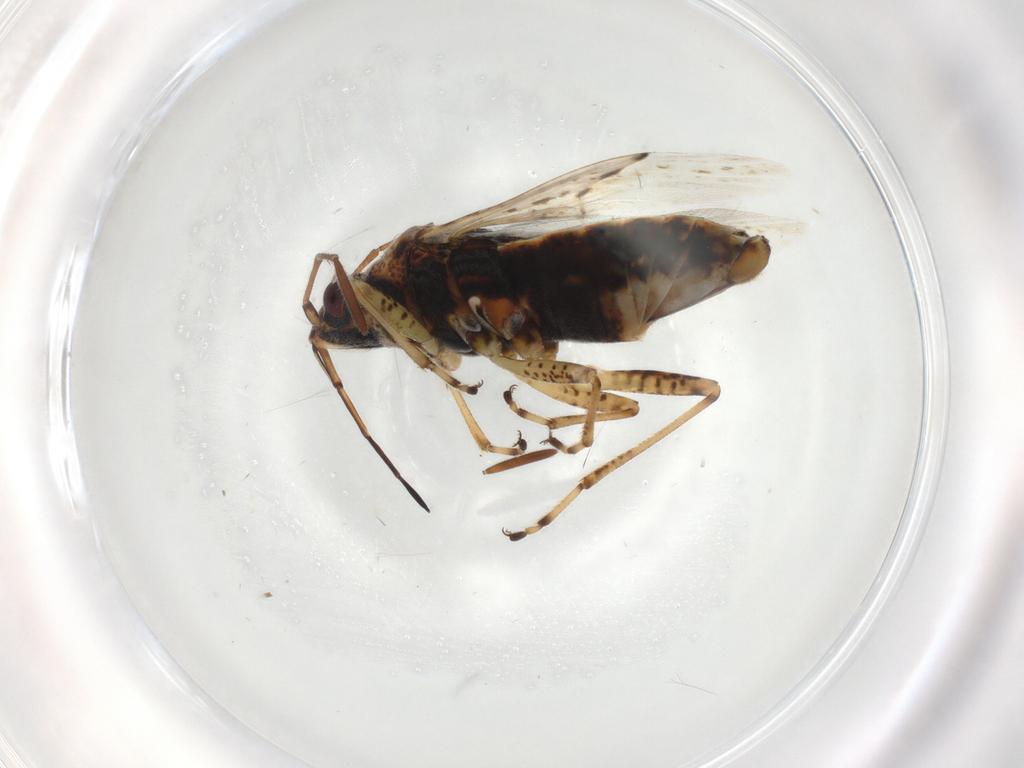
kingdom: Animalia
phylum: Arthropoda
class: Insecta
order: Hemiptera
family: Lygaeidae
